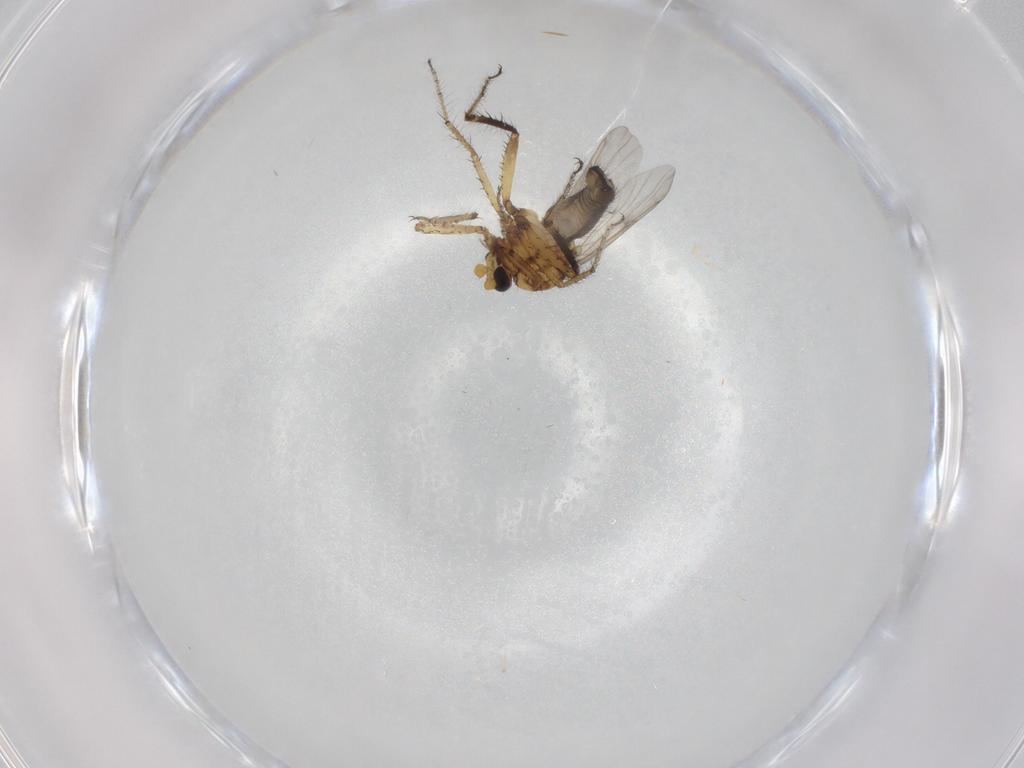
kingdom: Animalia
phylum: Arthropoda
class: Insecta
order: Diptera
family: Ceratopogonidae
